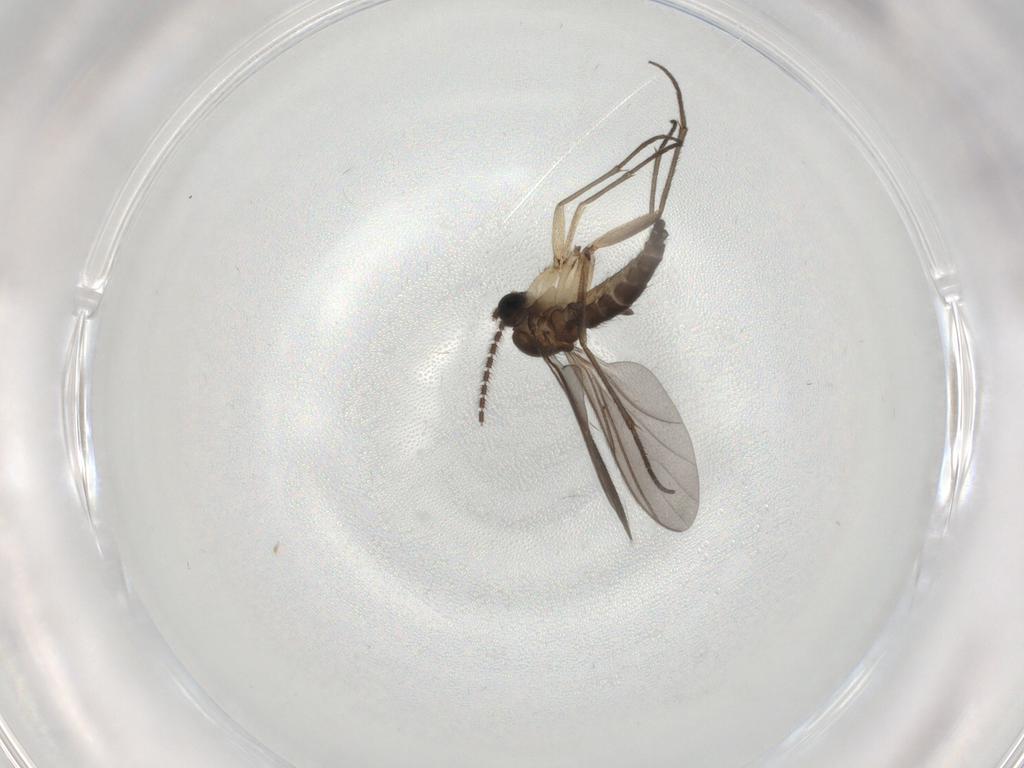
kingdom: Animalia
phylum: Arthropoda
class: Insecta
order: Diptera
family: Sciaridae
